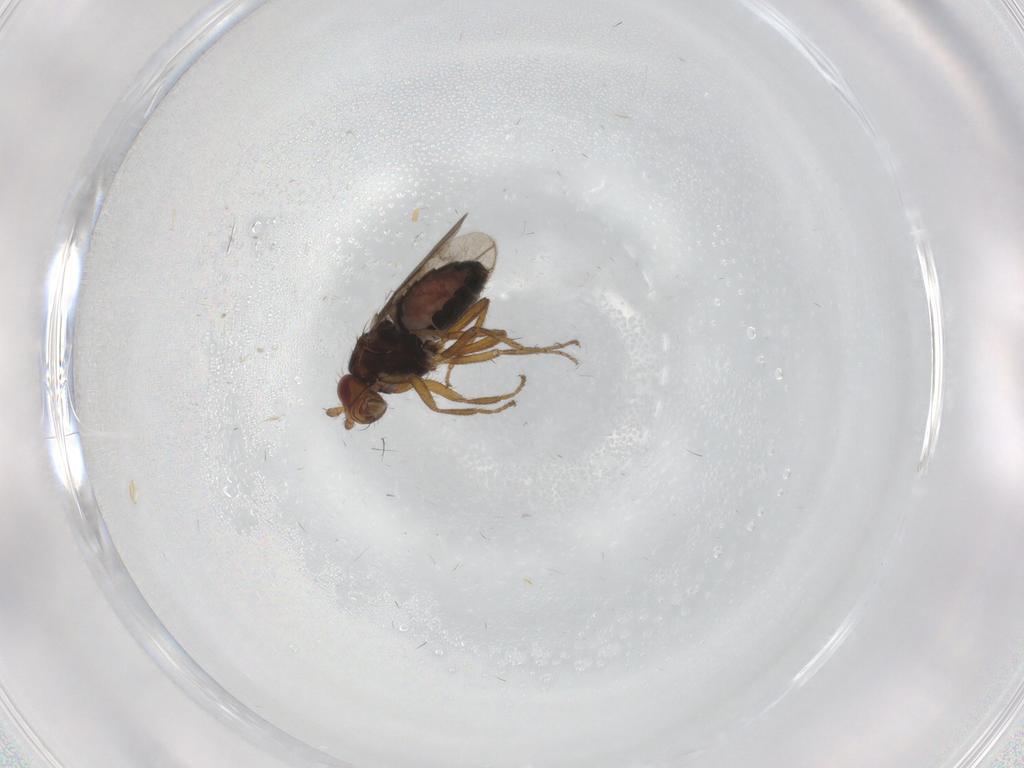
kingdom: Animalia
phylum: Arthropoda
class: Insecta
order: Diptera
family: Sphaeroceridae
